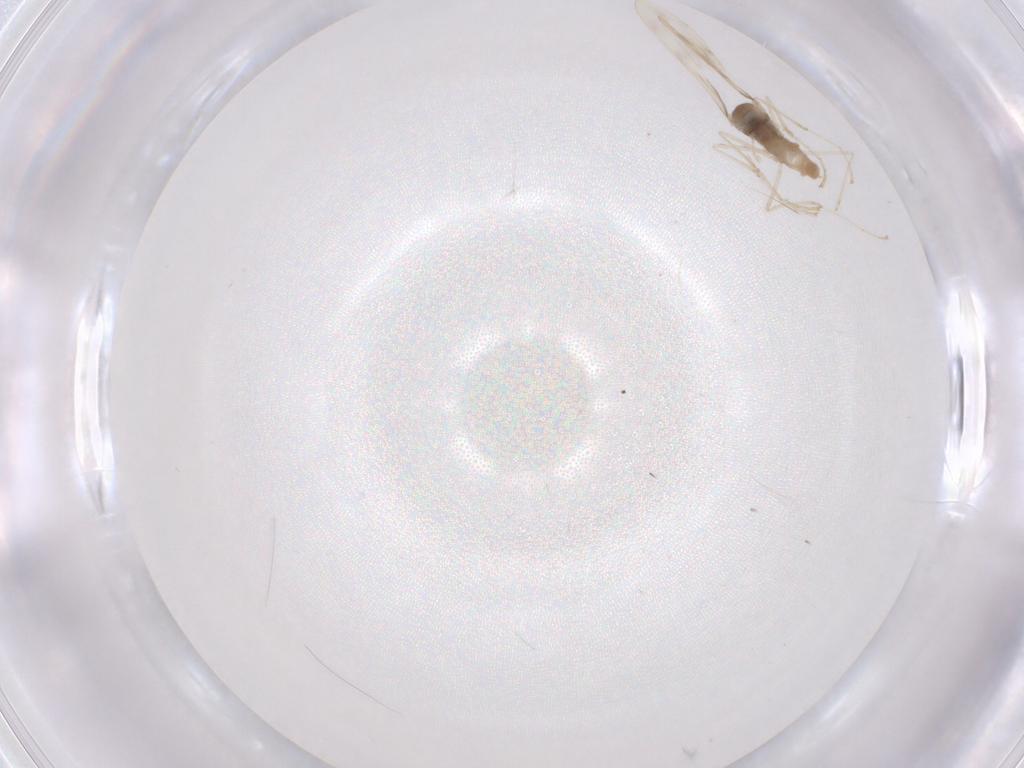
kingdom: Animalia
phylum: Arthropoda
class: Insecta
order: Diptera
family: Cecidomyiidae
